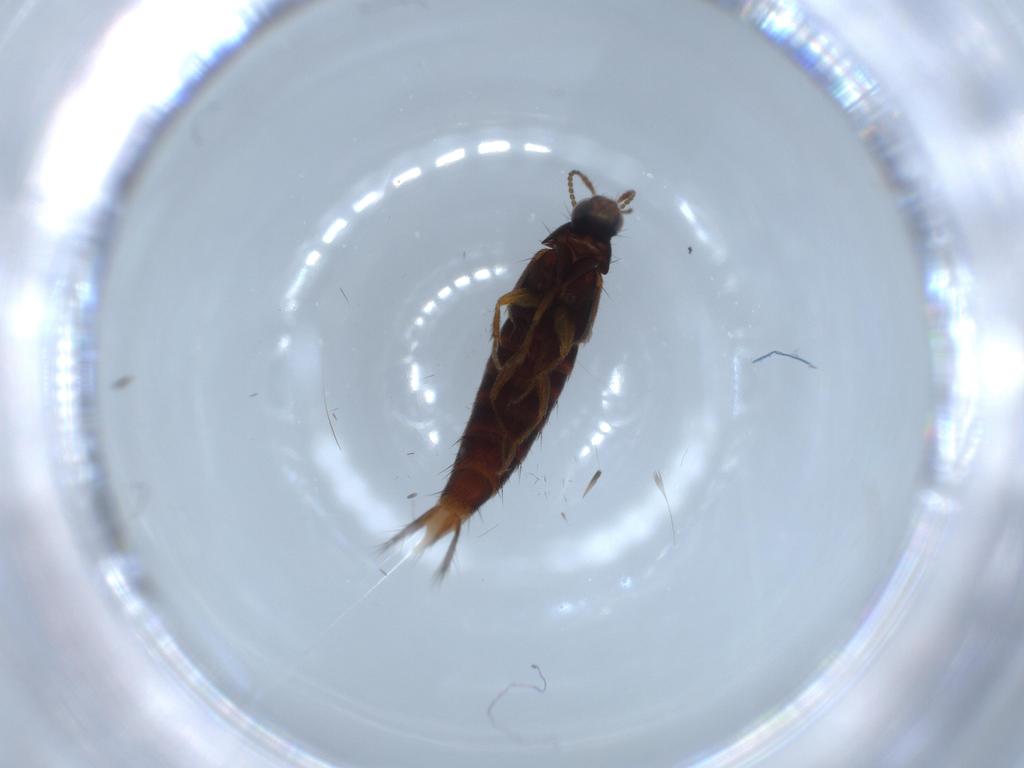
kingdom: Animalia
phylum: Arthropoda
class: Insecta
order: Coleoptera
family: Staphylinidae
